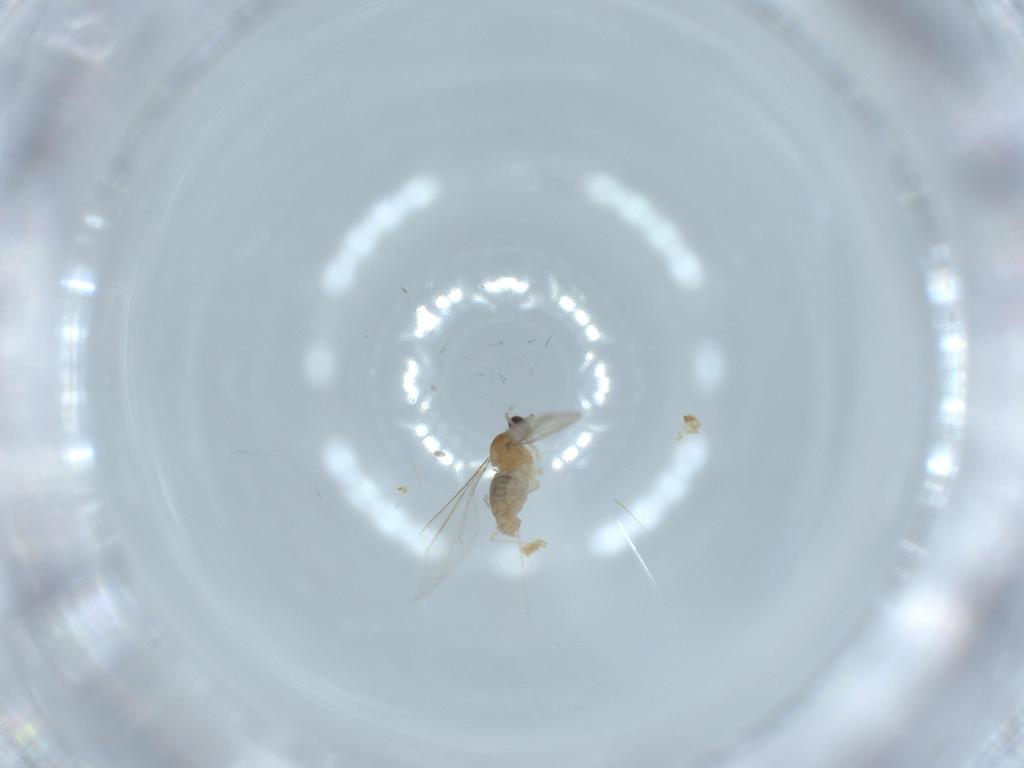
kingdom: Animalia
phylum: Arthropoda
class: Insecta
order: Diptera
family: Cecidomyiidae
